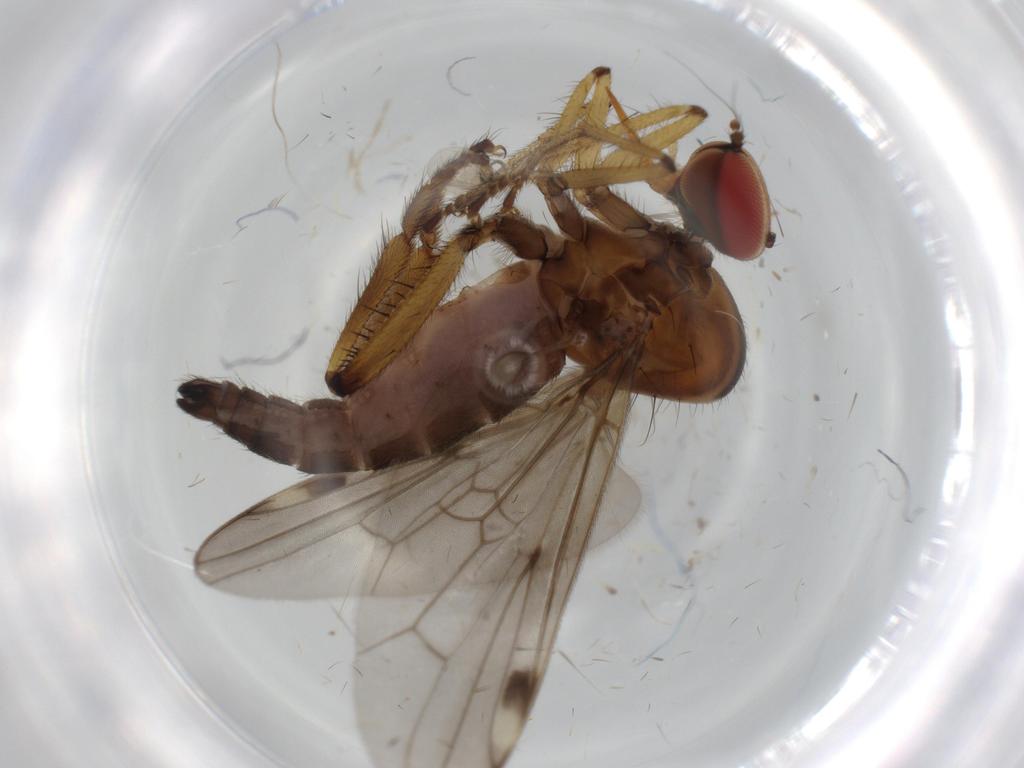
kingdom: Animalia
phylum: Arthropoda
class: Insecta
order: Diptera
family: Hybotidae
